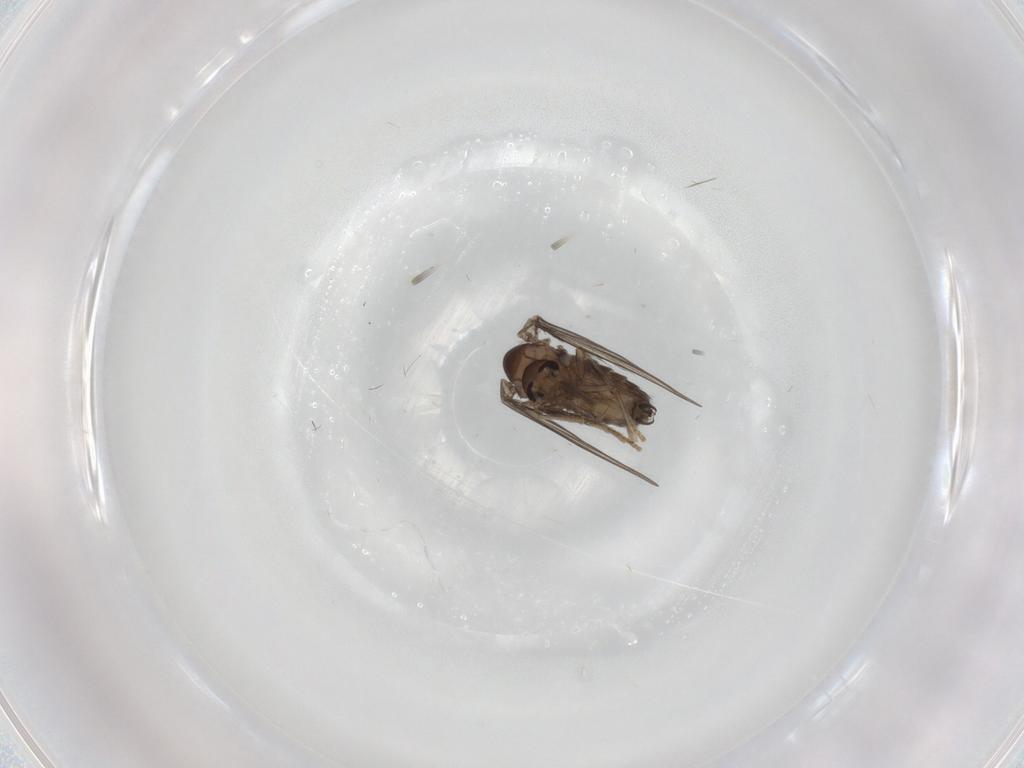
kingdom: Animalia
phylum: Arthropoda
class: Insecta
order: Diptera
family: Psychodidae
